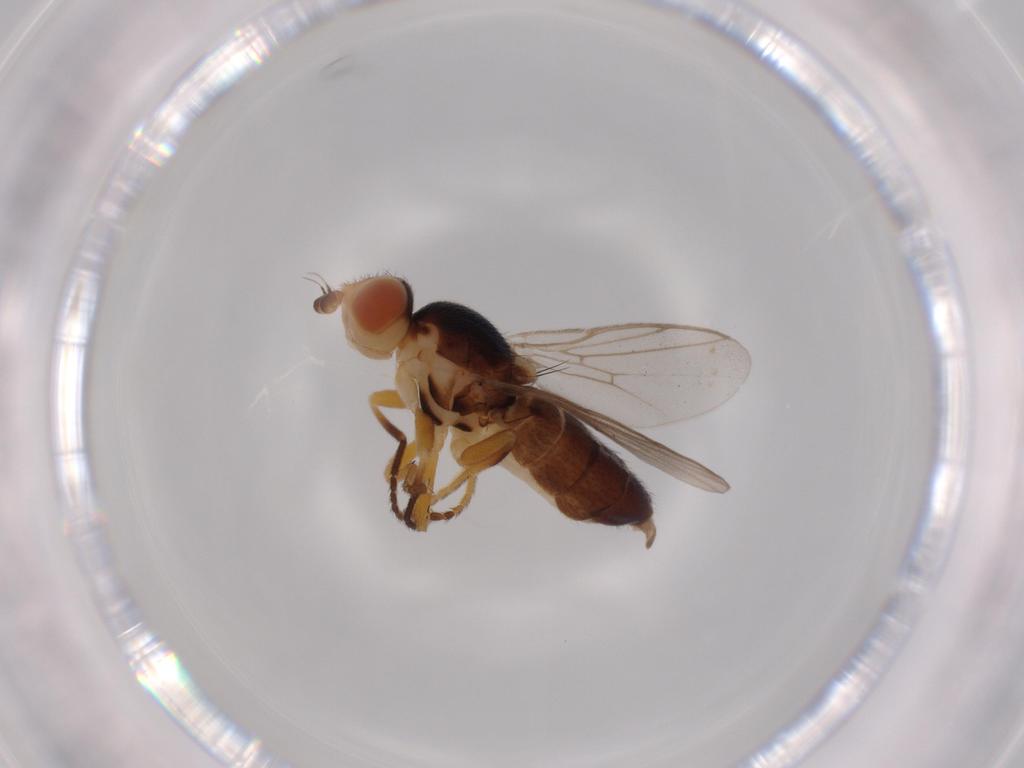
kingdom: Animalia
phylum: Arthropoda
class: Insecta
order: Diptera
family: Chloropidae
